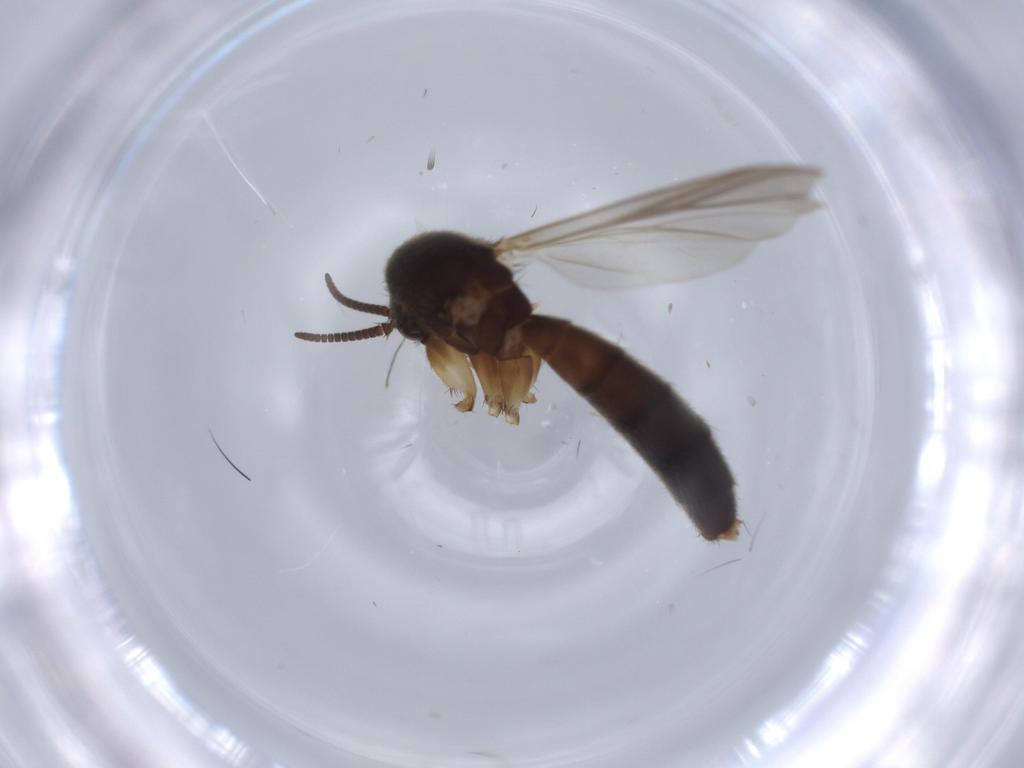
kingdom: Animalia
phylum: Arthropoda
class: Insecta
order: Diptera
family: Mycetophilidae
